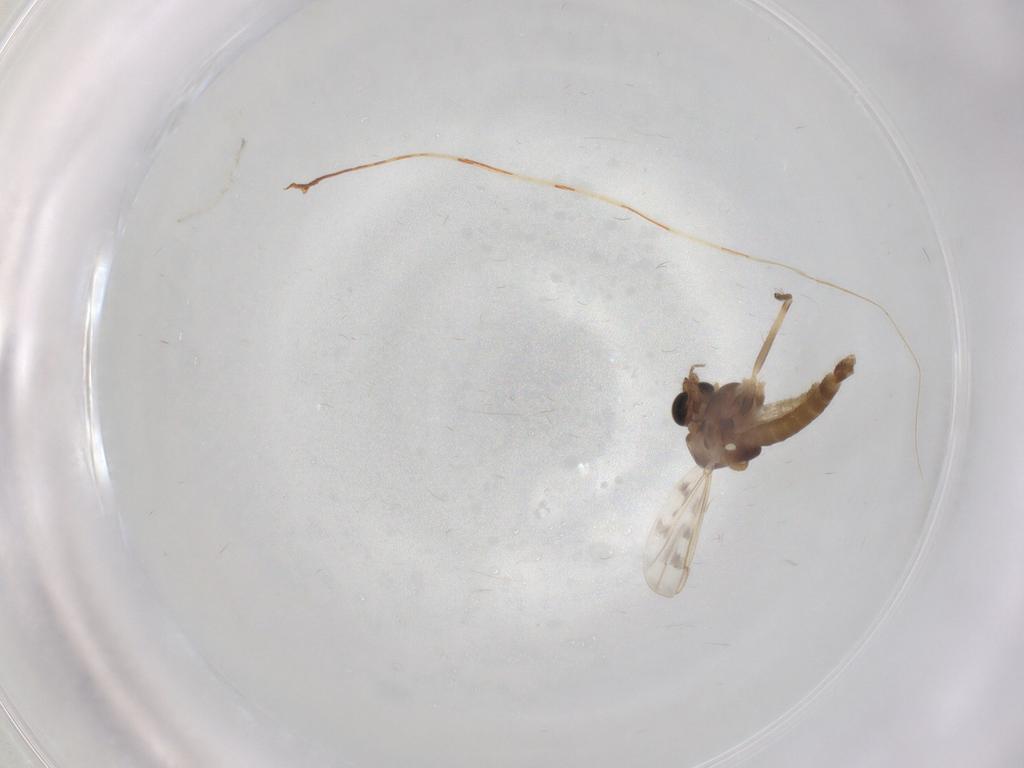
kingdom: Animalia
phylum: Arthropoda
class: Insecta
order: Diptera
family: Chironomidae
